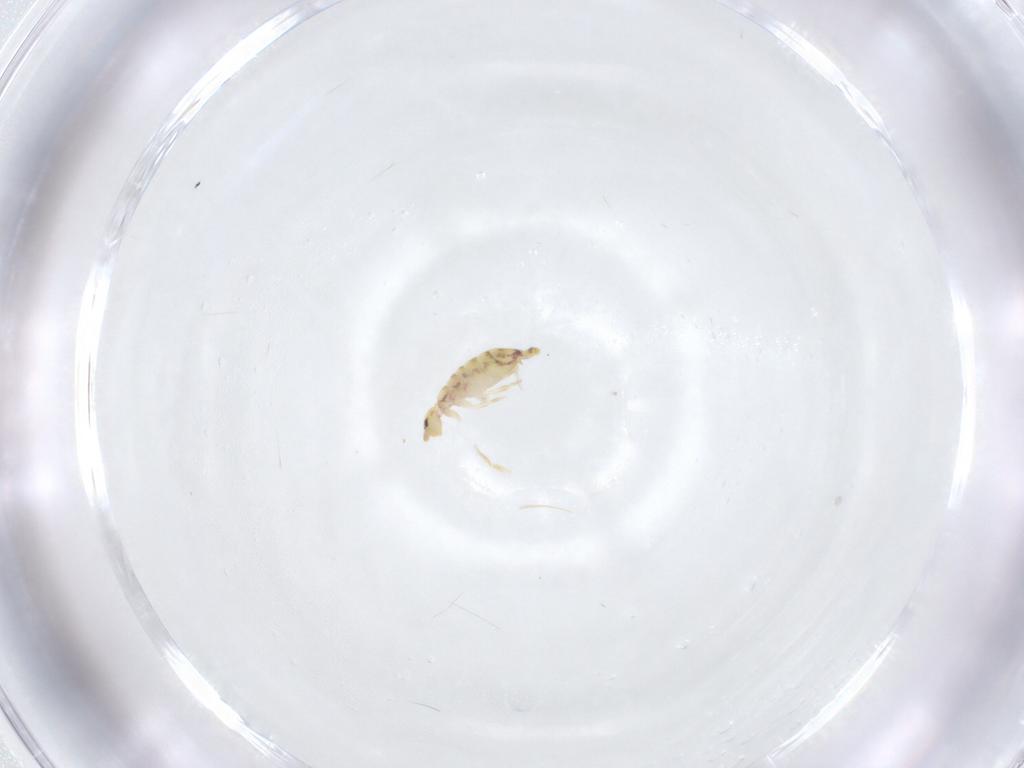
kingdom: Animalia
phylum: Arthropoda
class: Collembola
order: Entomobryomorpha
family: Entomobryidae
